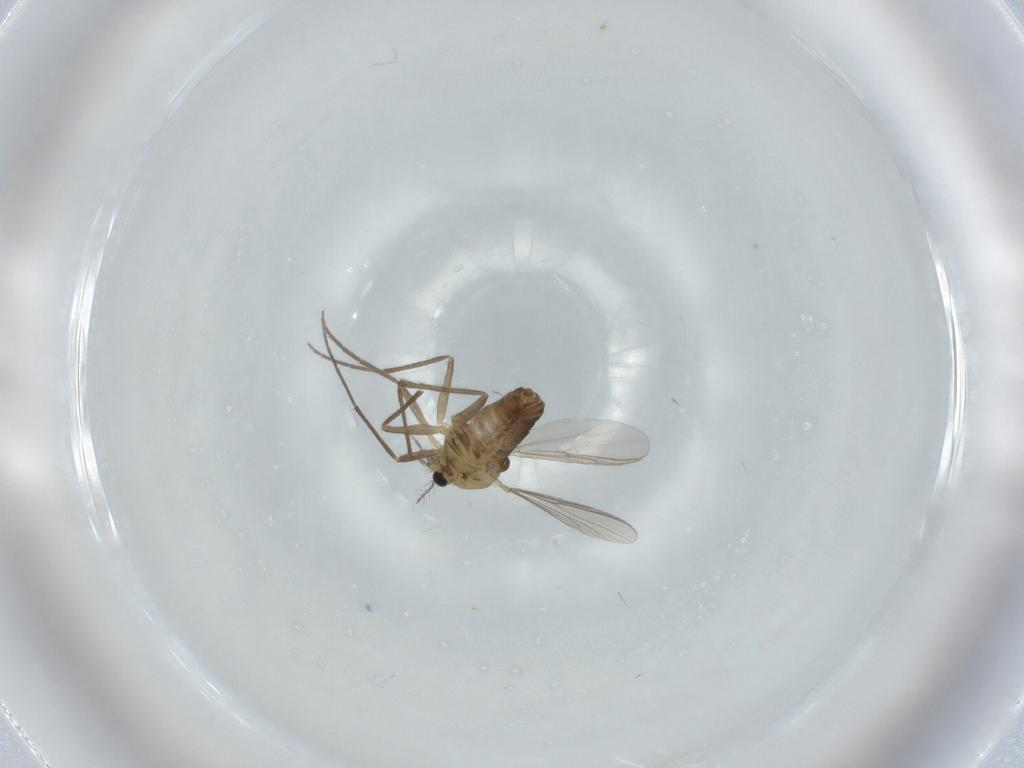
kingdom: Animalia
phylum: Arthropoda
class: Insecta
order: Diptera
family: Chironomidae
